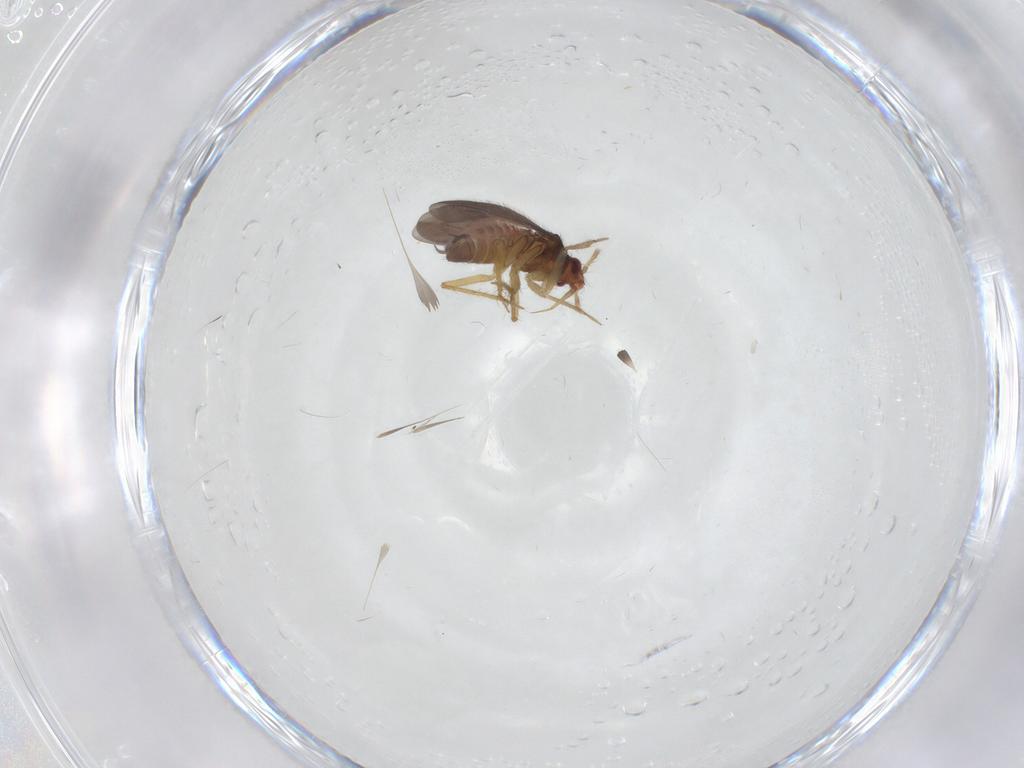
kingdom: Animalia
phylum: Arthropoda
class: Insecta
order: Hemiptera
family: Ceratocombidae
